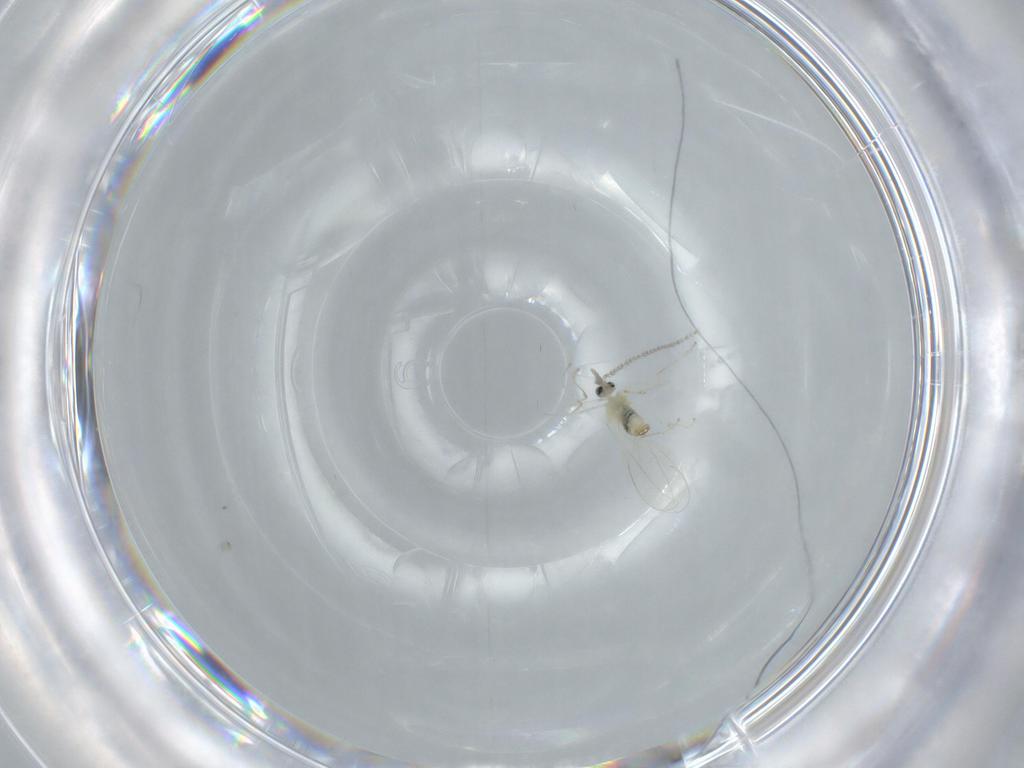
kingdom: Animalia
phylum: Arthropoda
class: Insecta
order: Diptera
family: Cecidomyiidae
